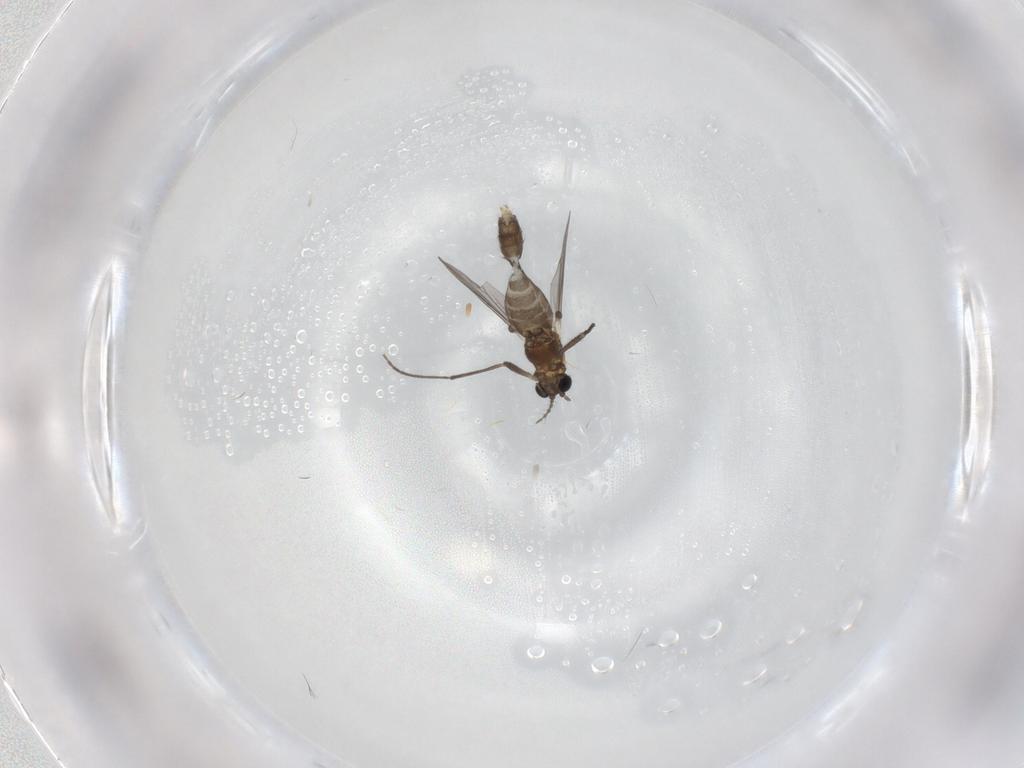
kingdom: Animalia
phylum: Arthropoda
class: Insecta
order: Diptera
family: Chironomidae
